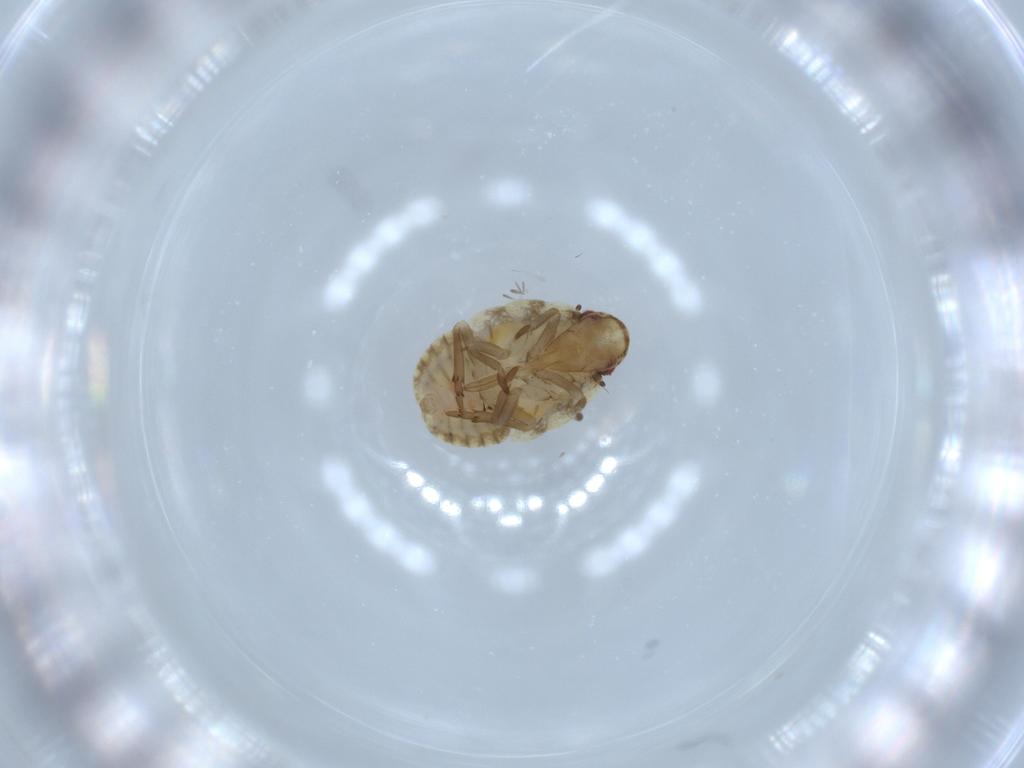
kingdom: Animalia
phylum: Arthropoda
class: Insecta
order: Hemiptera
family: Flatidae
